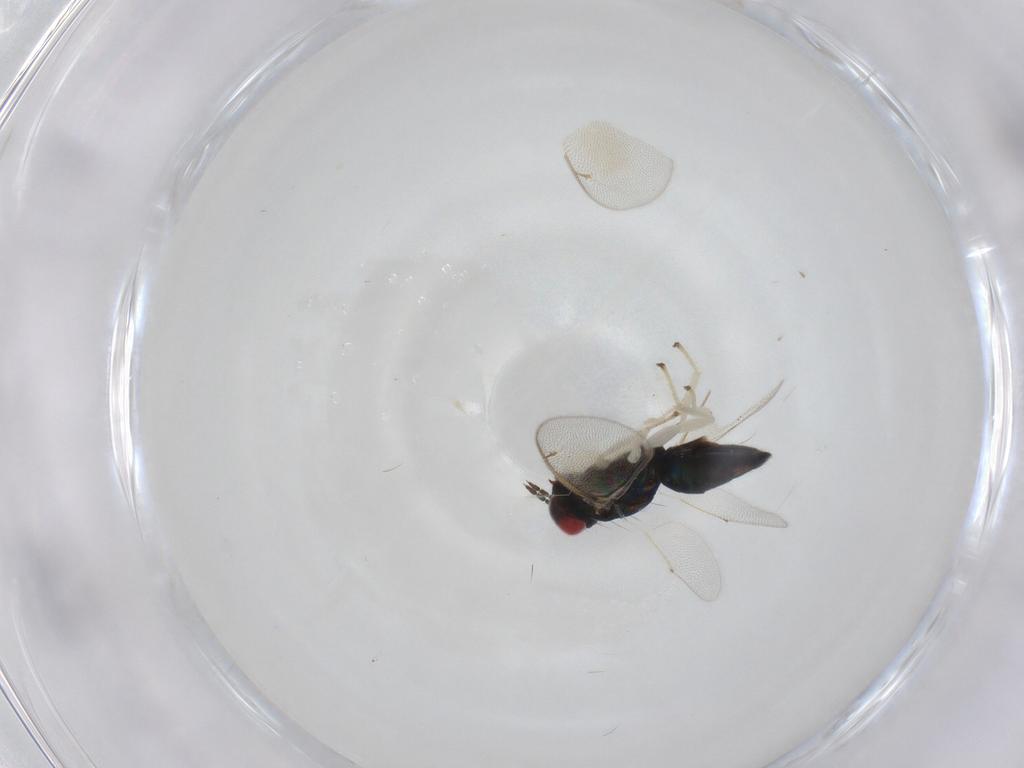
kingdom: Animalia
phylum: Arthropoda
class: Insecta
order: Hymenoptera
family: Eulophidae
